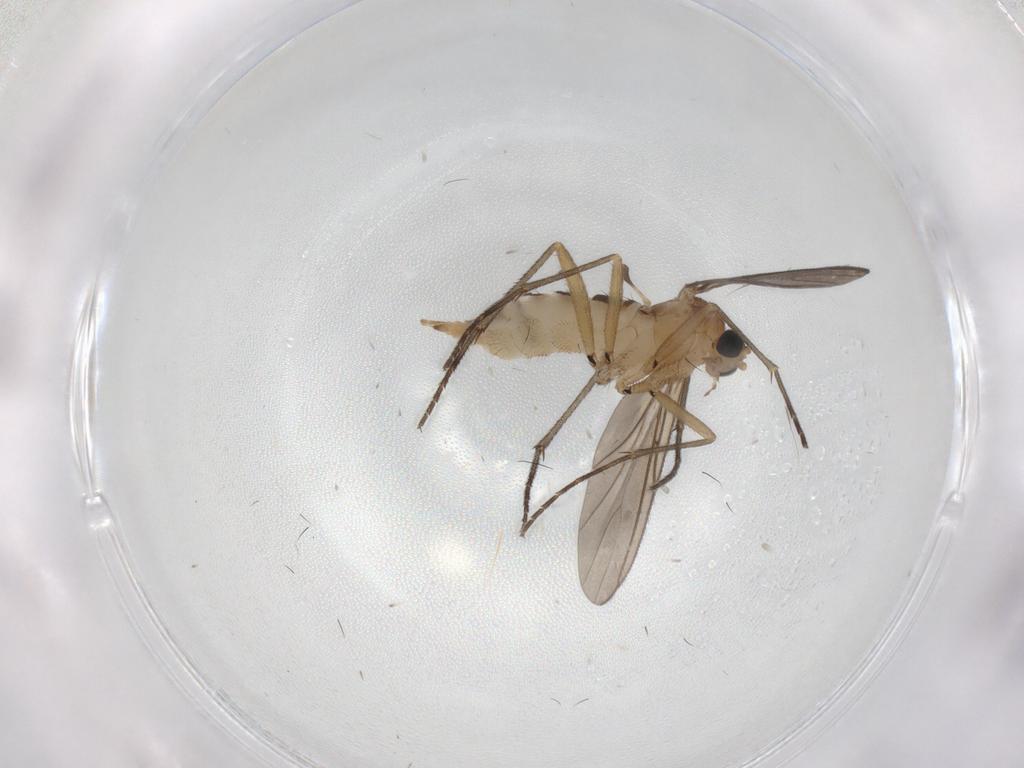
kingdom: Animalia
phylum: Arthropoda
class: Insecta
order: Diptera
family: Sciaridae
